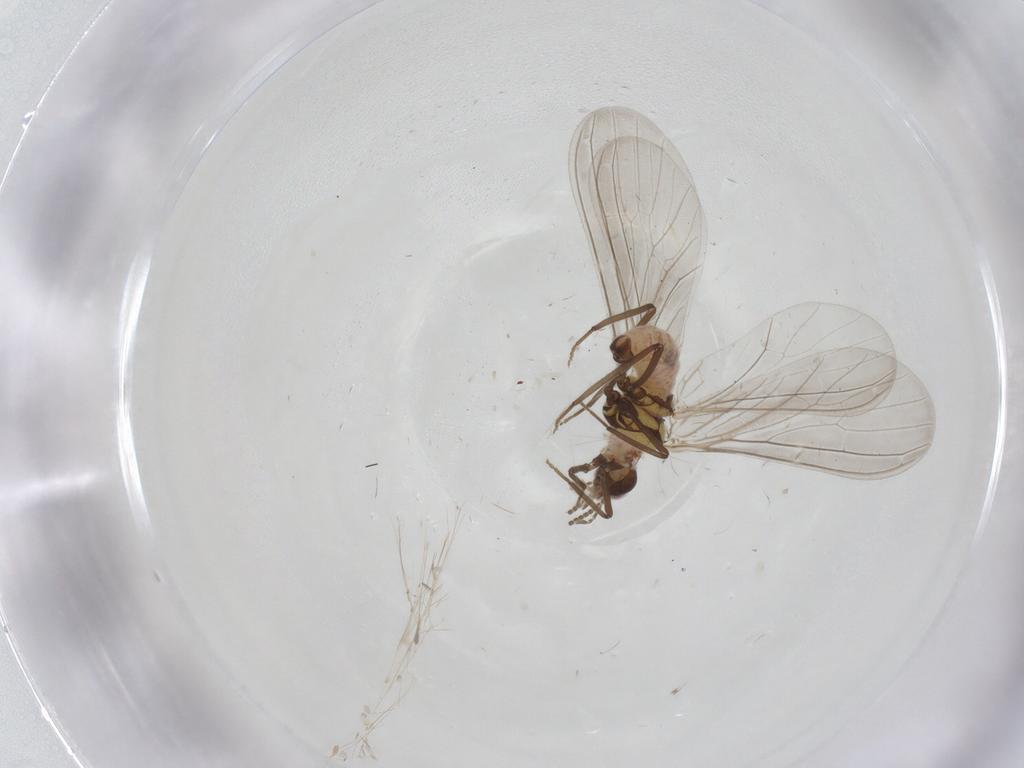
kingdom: Animalia
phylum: Arthropoda
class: Insecta
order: Neuroptera
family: Coniopterygidae
